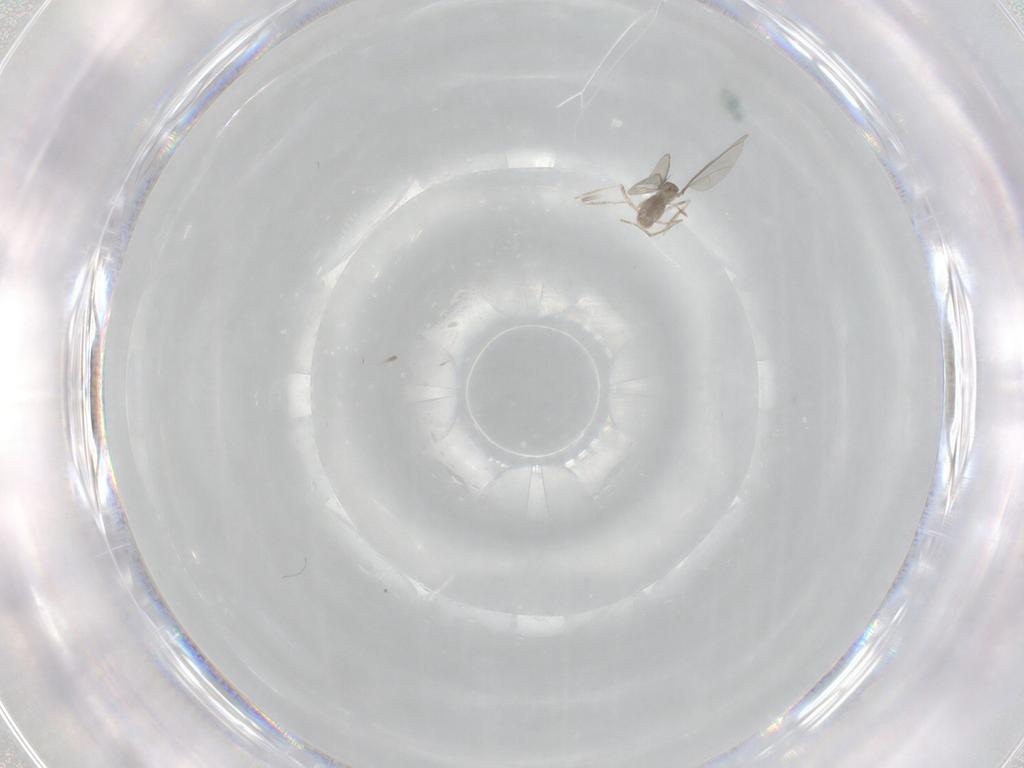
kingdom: Animalia
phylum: Arthropoda
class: Insecta
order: Diptera
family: Cecidomyiidae
